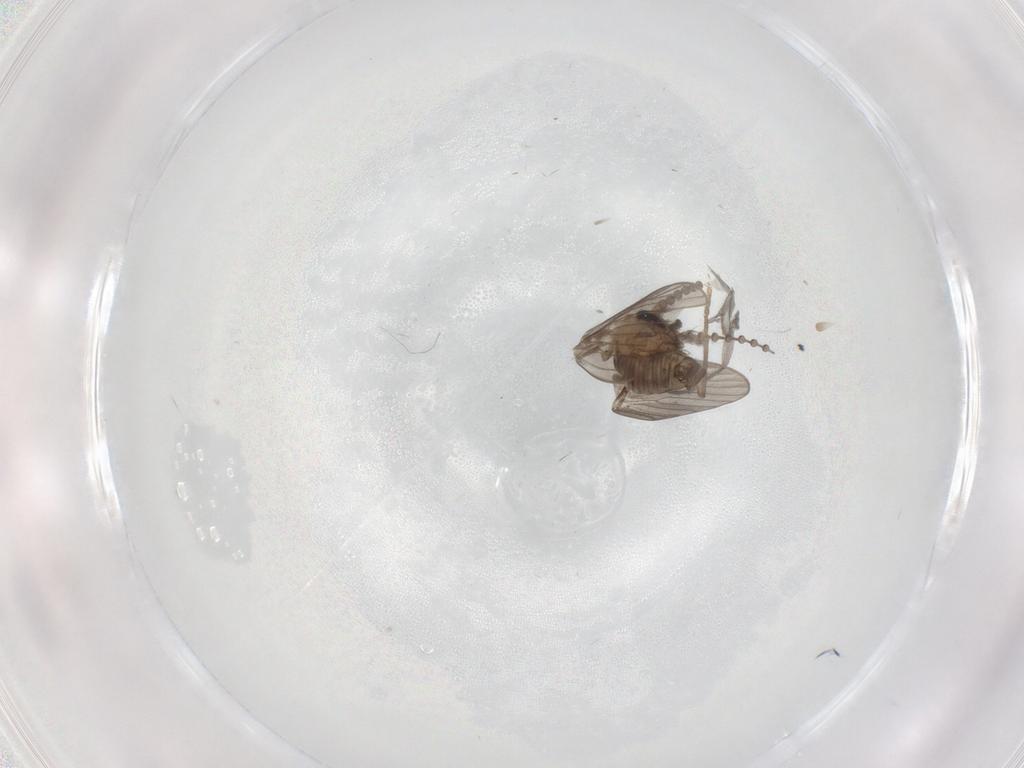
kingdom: Animalia
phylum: Arthropoda
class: Insecta
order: Diptera
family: Psychodidae
